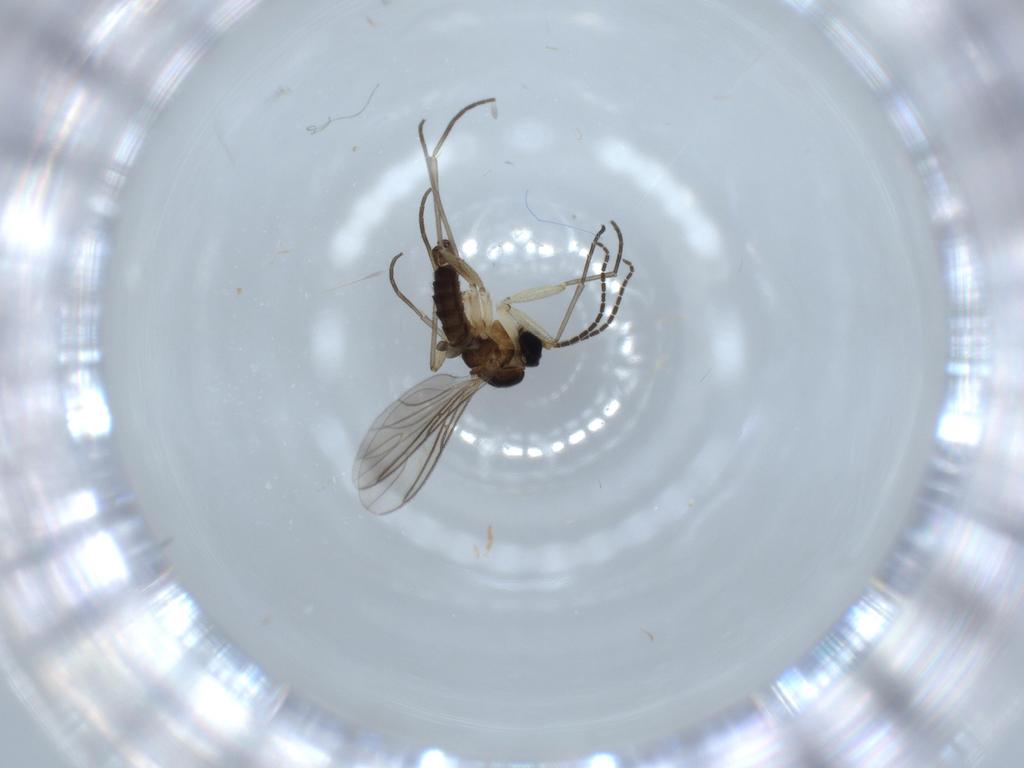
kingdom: Animalia
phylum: Arthropoda
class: Insecta
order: Diptera
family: Sciaridae
